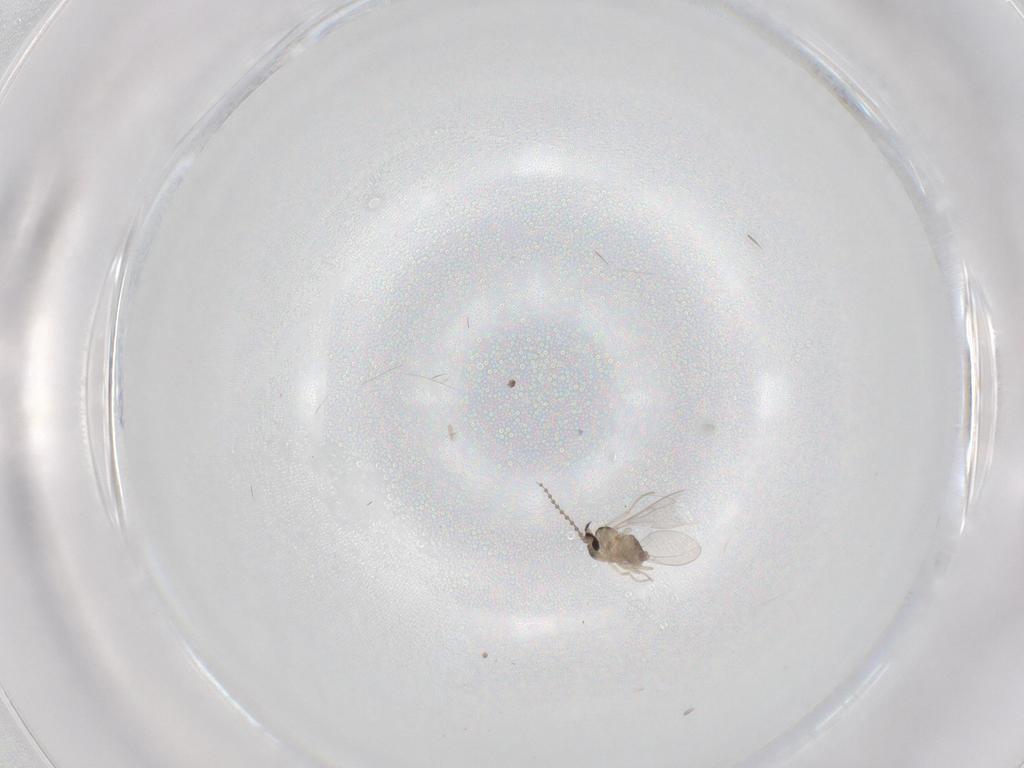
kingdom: Animalia
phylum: Arthropoda
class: Insecta
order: Diptera
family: Cecidomyiidae
